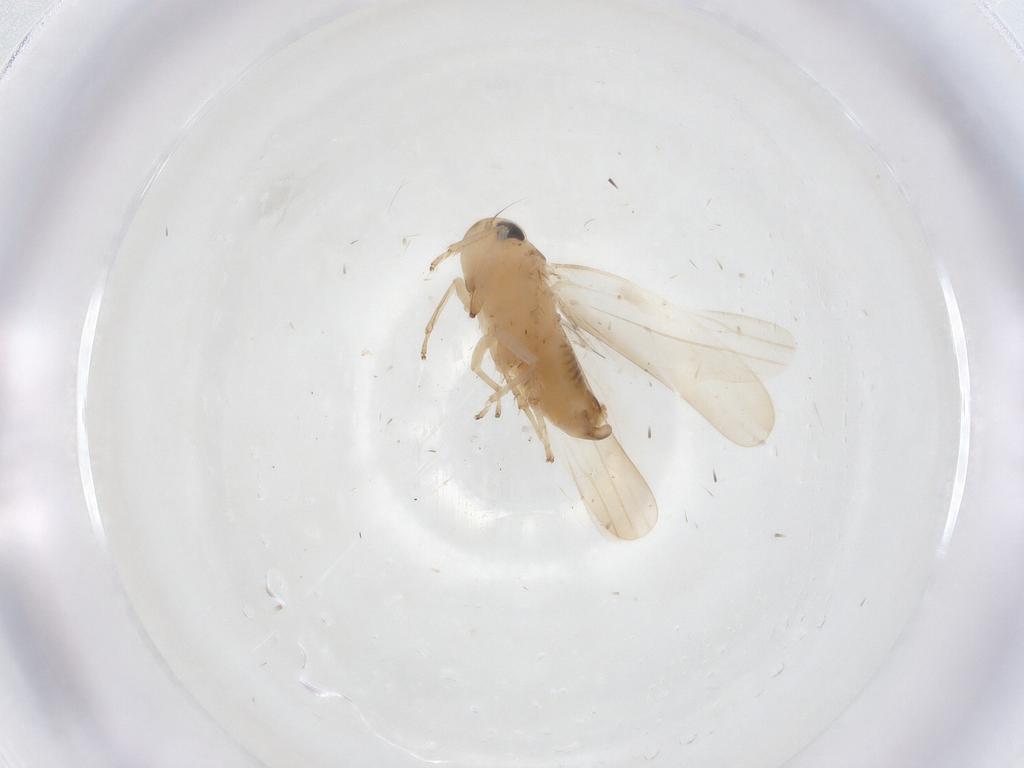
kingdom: Animalia
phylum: Arthropoda
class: Insecta
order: Hemiptera
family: Cicadellidae
